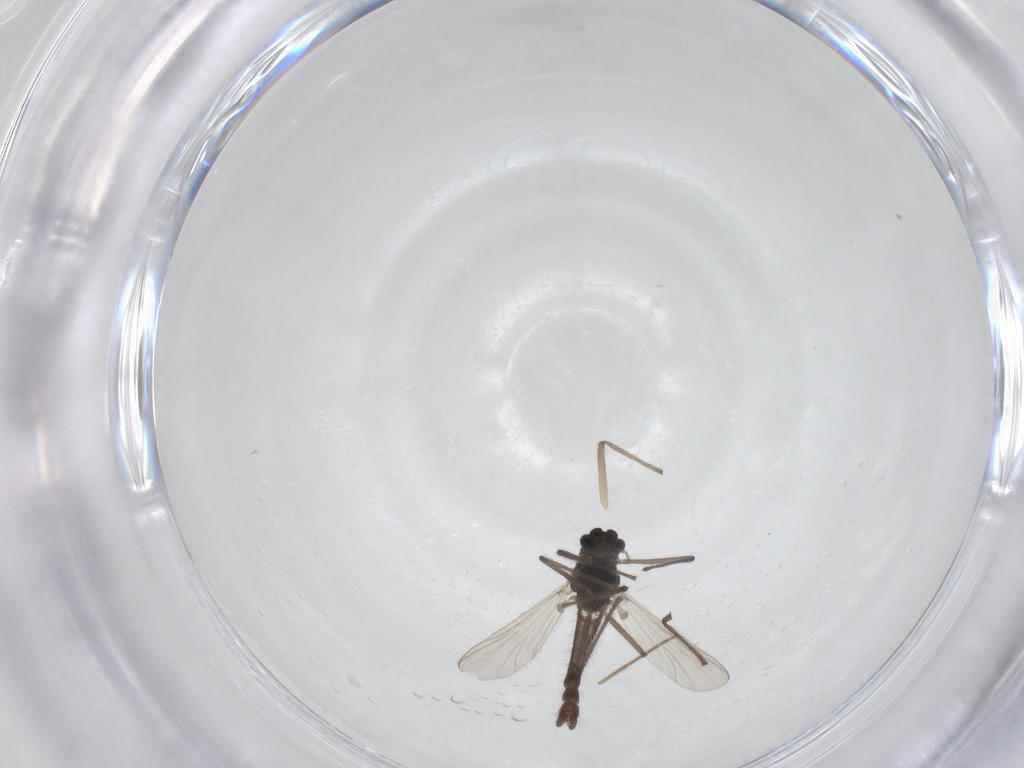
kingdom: Animalia
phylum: Arthropoda
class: Insecta
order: Diptera
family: Chironomidae
